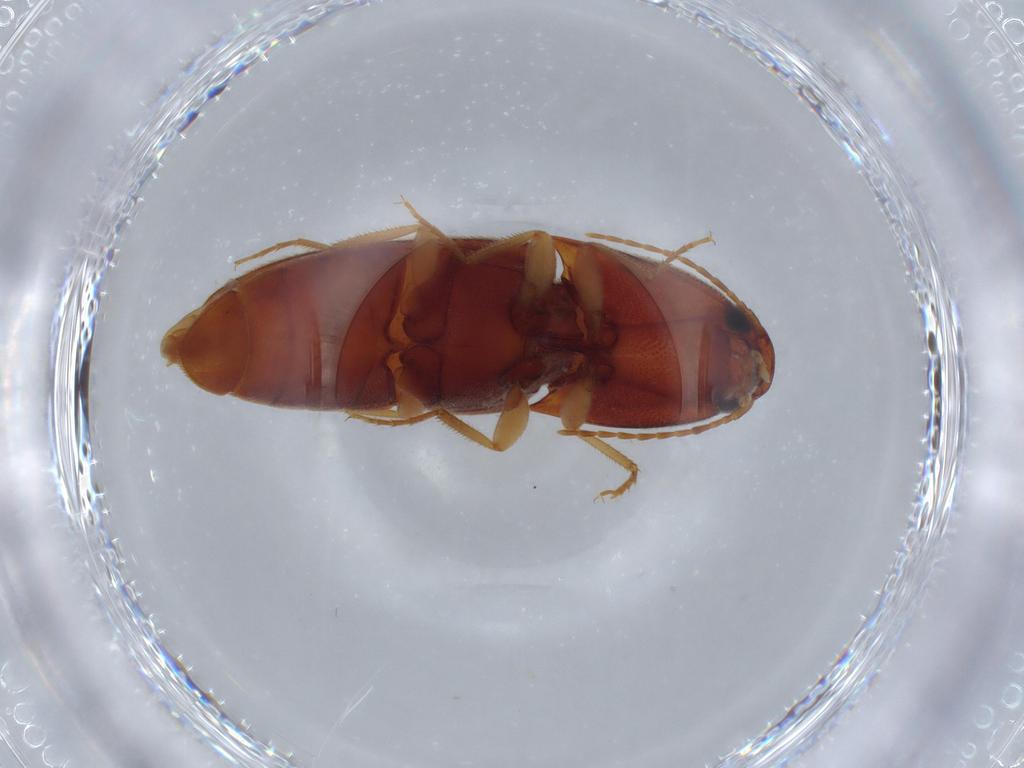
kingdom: Animalia
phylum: Arthropoda
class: Insecta
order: Coleoptera
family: Elateridae
